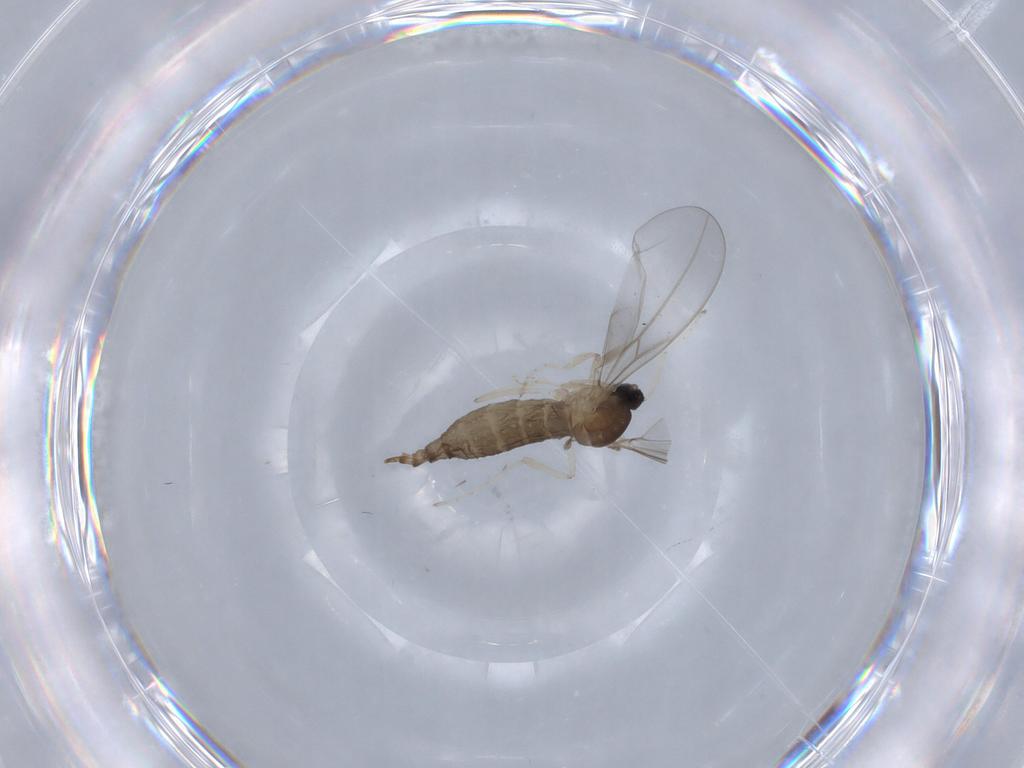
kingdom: Animalia
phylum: Arthropoda
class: Insecta
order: Diptera
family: Cecidomyiidae
